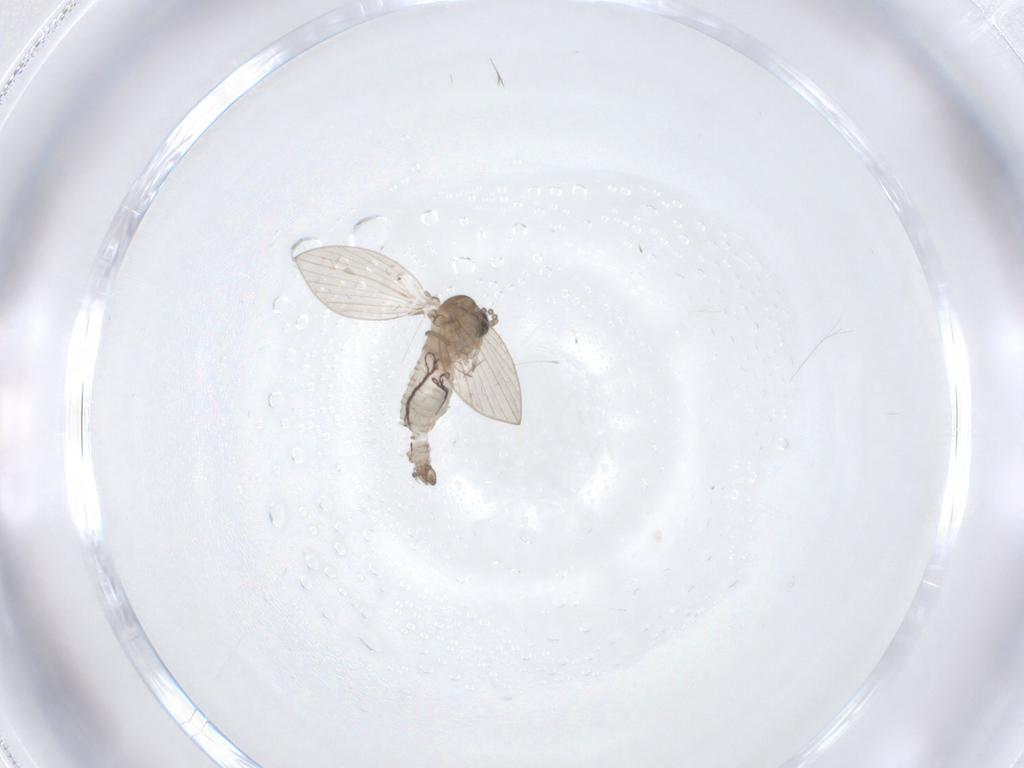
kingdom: Animalia
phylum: Arthropoda
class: Insecta
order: Diptera
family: Psychodidae
